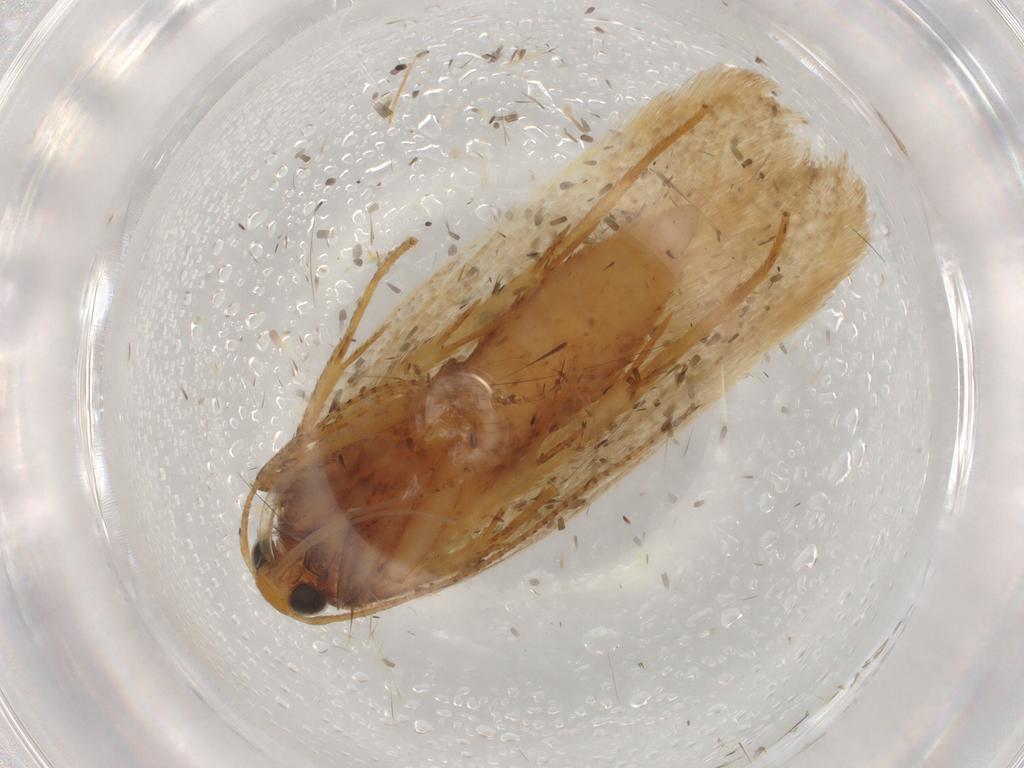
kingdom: Animalia
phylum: Arthropoda
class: Insecta
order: Lepidoptera
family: Gelechiidae
